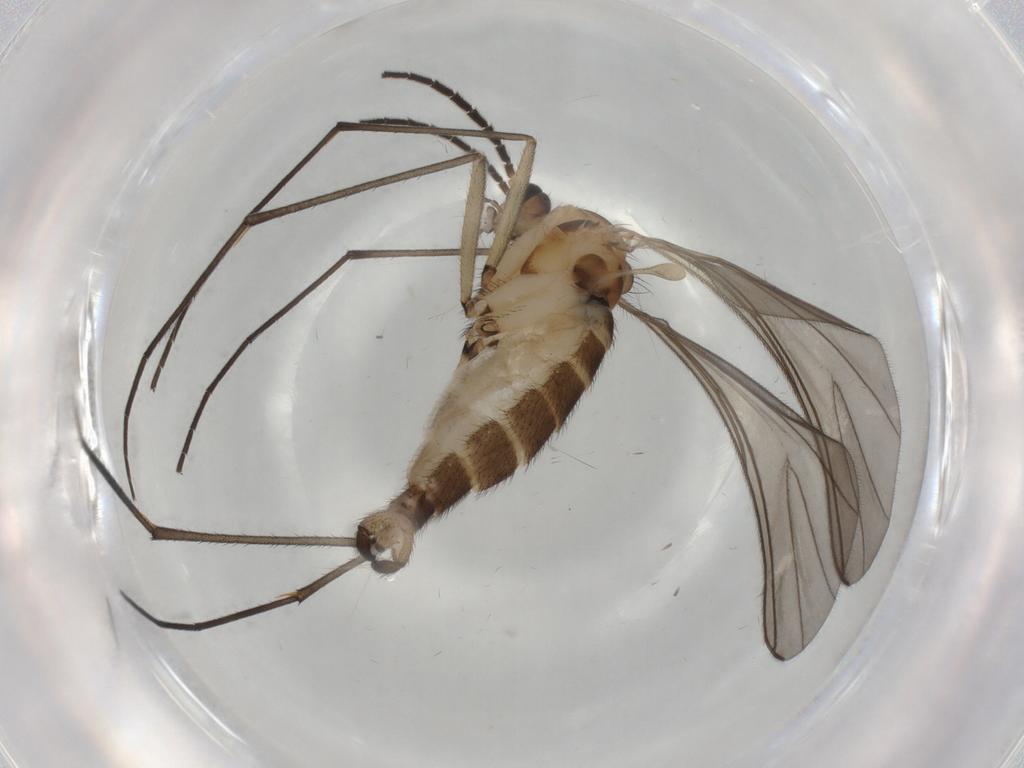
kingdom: Animalia
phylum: Arthropoda
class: Insecta
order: Diptera
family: Sciaridae
